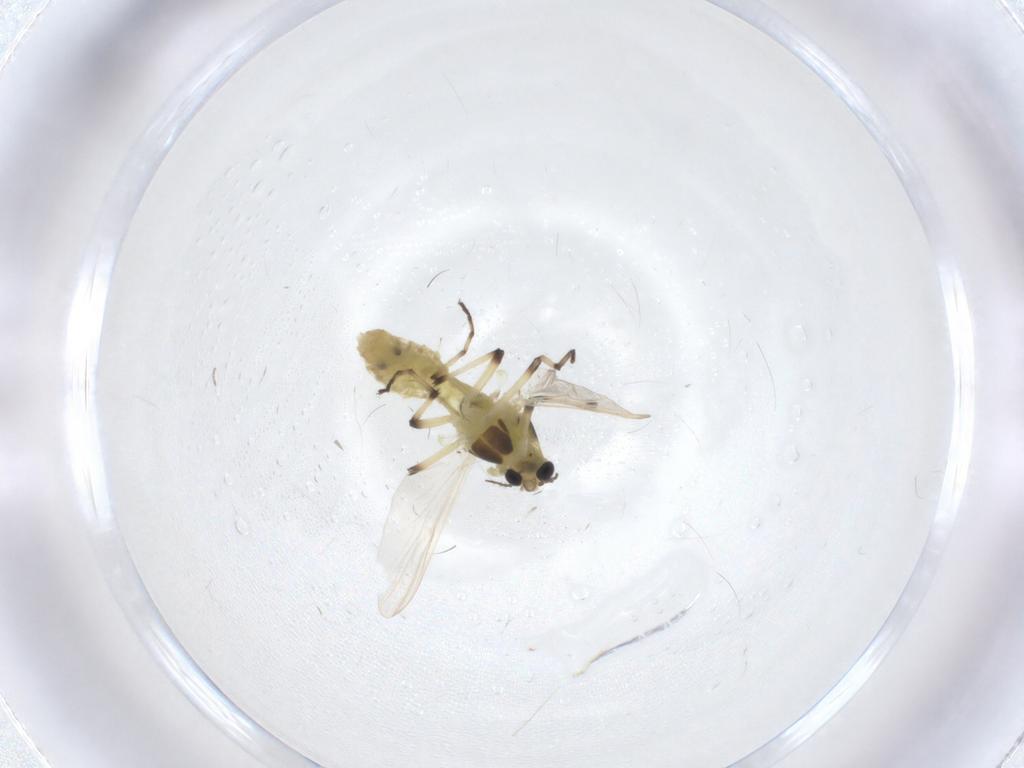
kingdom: Animalia
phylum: Arthropoda
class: Insecta
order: Diptera
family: Chironomidae
